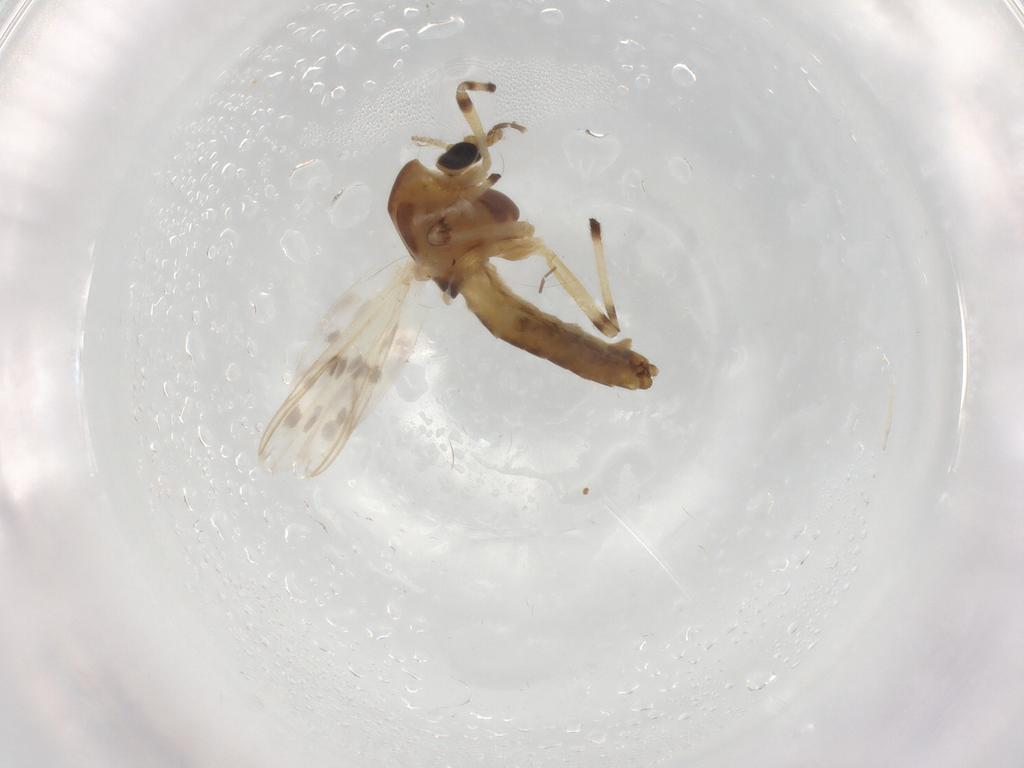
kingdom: Animalia
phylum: Arthropoda
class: Insecta
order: Diptera
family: Chironomidae
